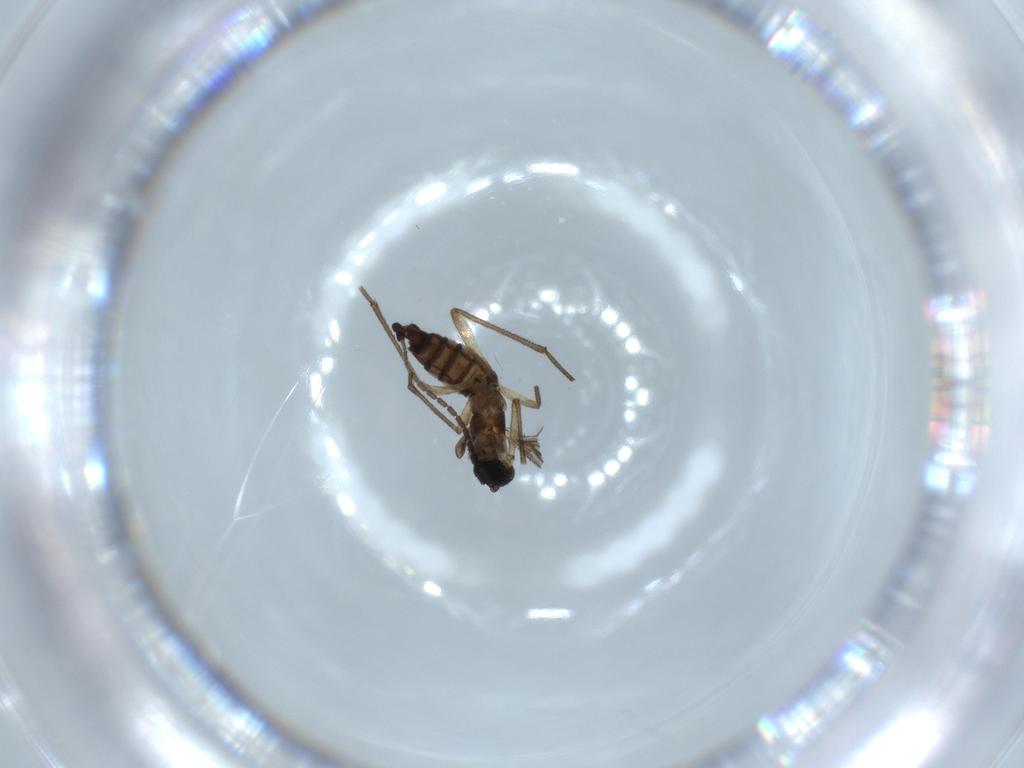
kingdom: Animalia
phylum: Arthropoda
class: Insecta
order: Diptera
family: Sciaridae
